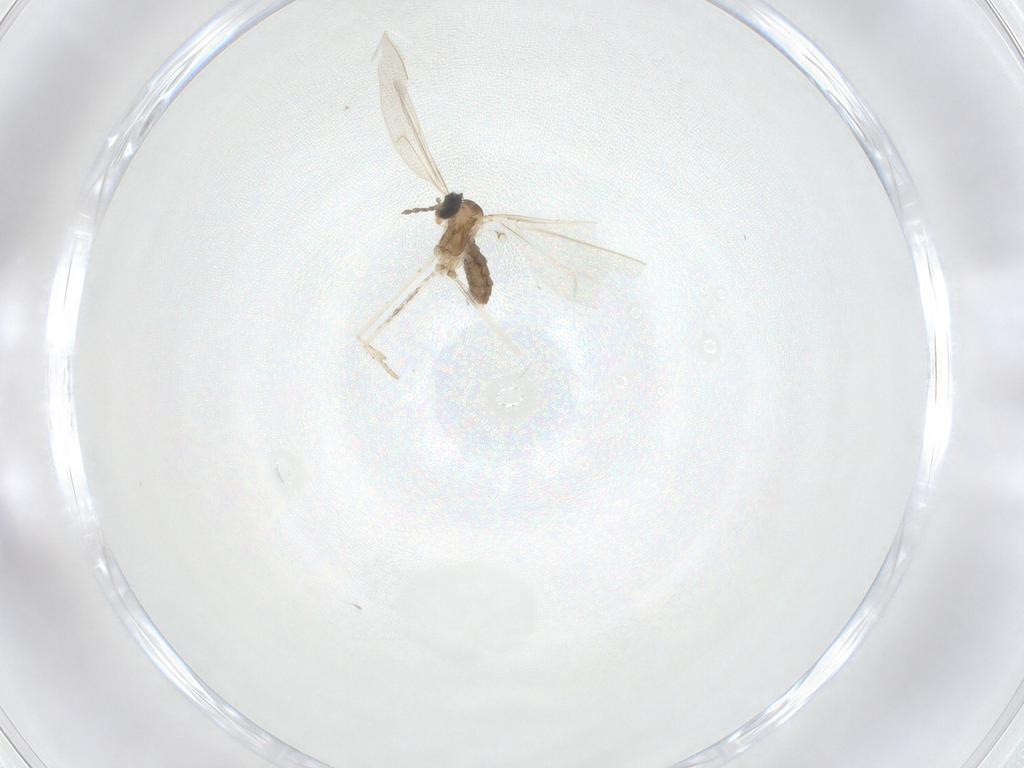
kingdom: Animalia
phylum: Arthropoda
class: Insecta
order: Diptera
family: Cecidomyiidae
